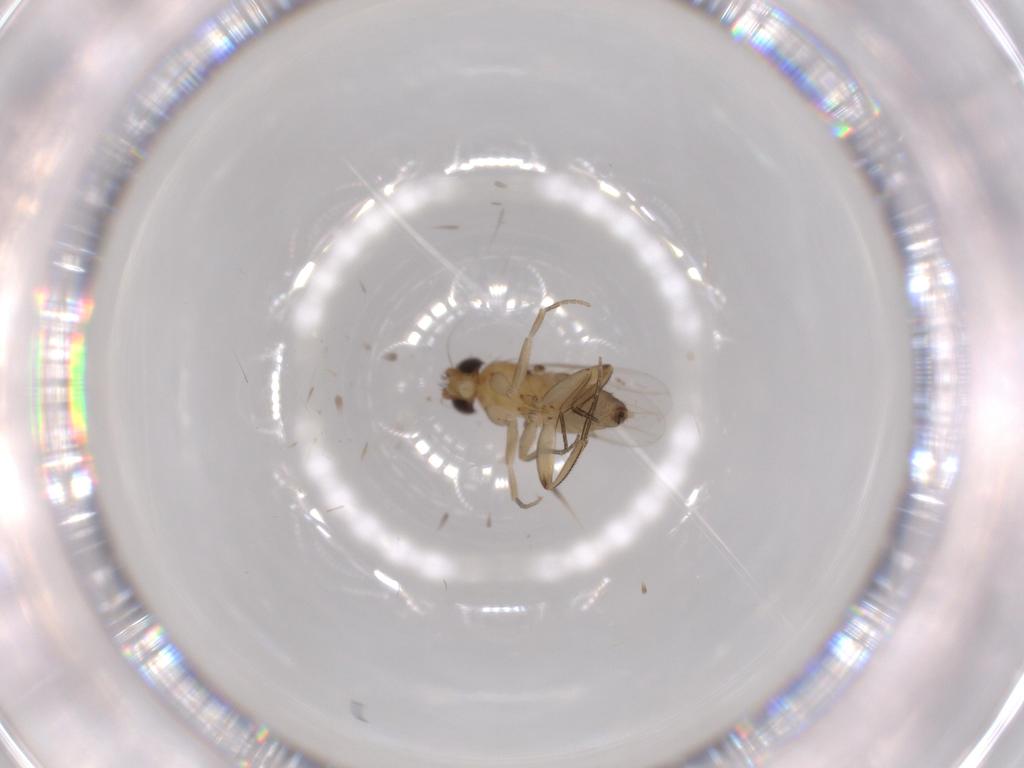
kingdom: Animalia
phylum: Arthropoda
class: Insecta
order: Diptera
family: Phoridae
